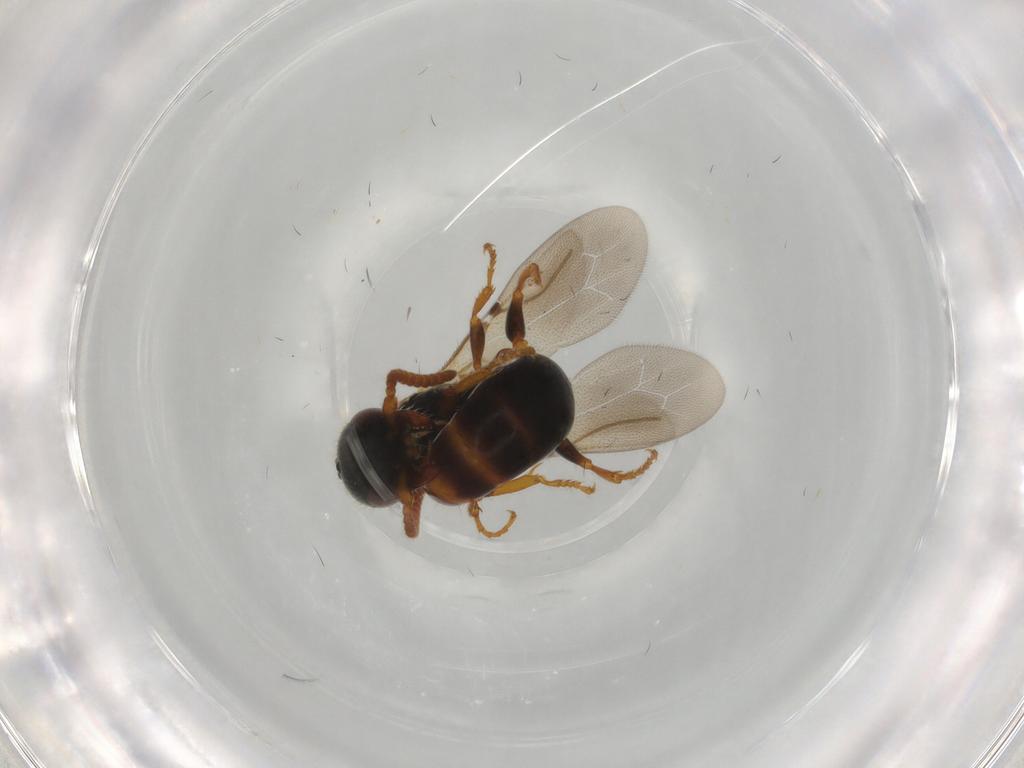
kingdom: Animalia
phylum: Arthropoda
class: Insecta
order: Hymenoptera
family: Bethylidae
